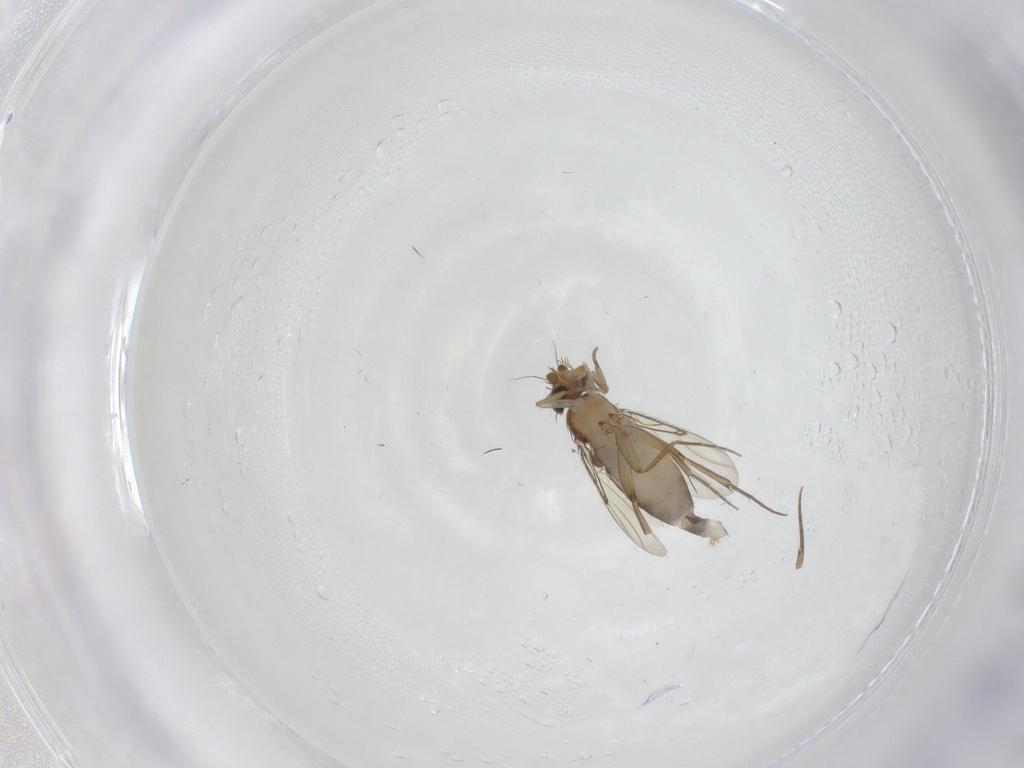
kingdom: Animalia
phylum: Arthropoda
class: Insecta
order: Diptera
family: Phoridae
